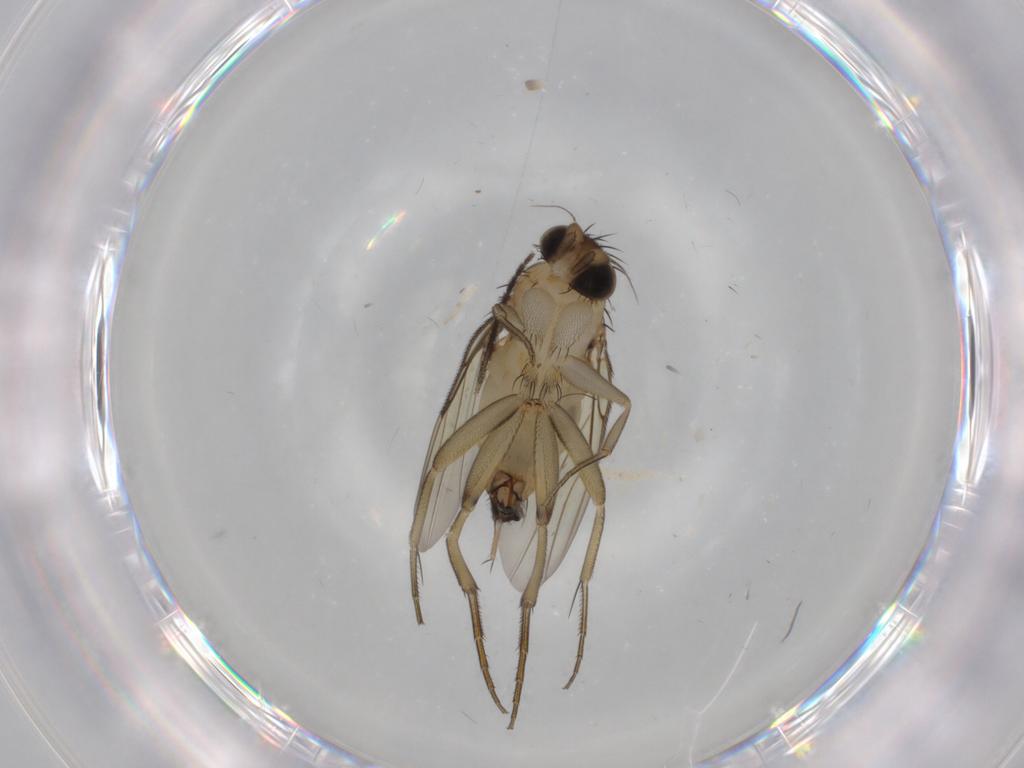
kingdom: Animalia
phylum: Arthropoda
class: Insecta
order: Diptera
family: Phoridae
